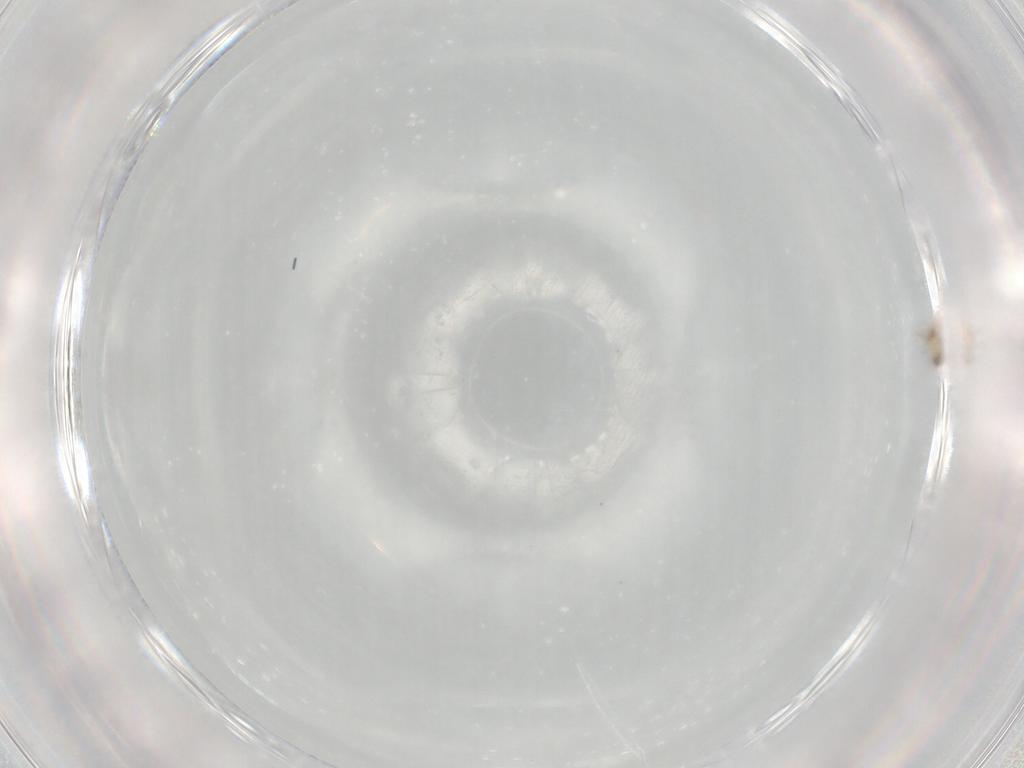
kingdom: Animalia
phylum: Arthropoda
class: Insecta
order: Diptera
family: Chironomidae
